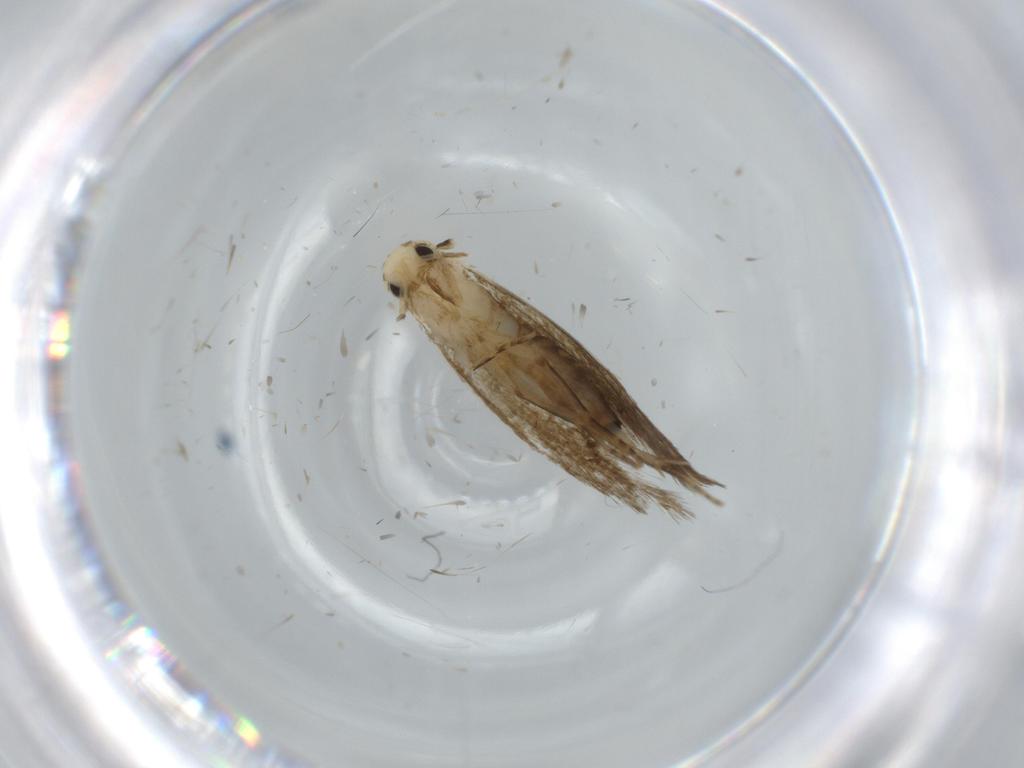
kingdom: Animalia
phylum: Arthropoda
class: Insecta
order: Lepidoptera
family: Tineidae
